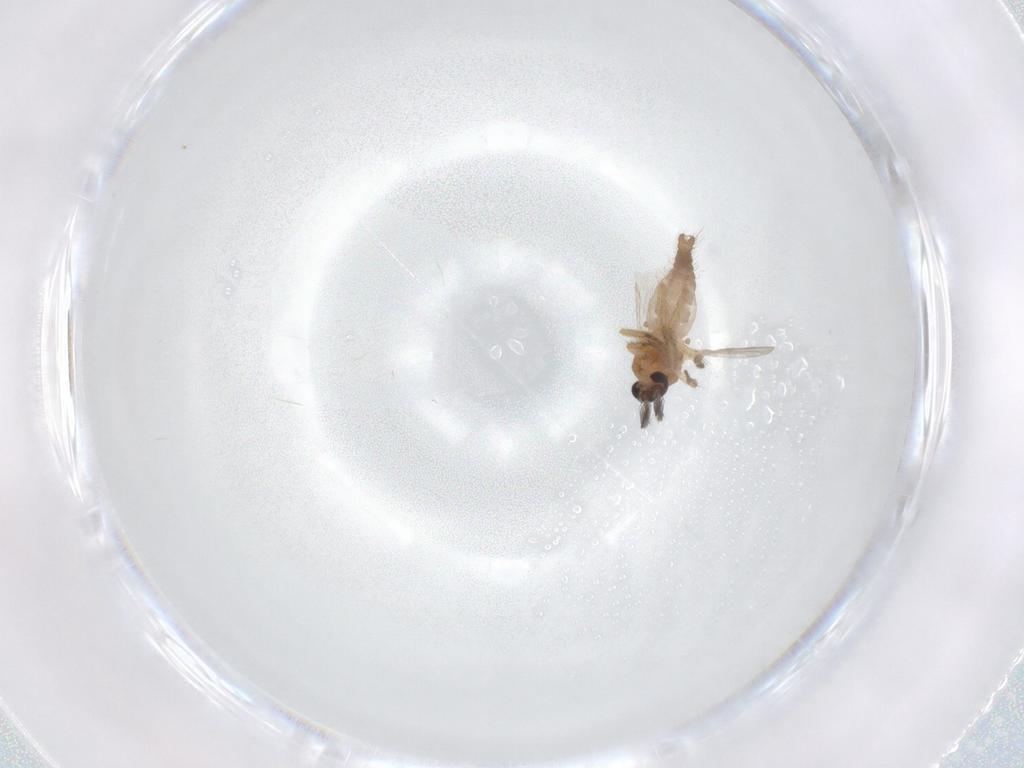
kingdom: Animalia
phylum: Arthropoda
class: Insecta
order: Diptera
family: Ceratopogonidae
